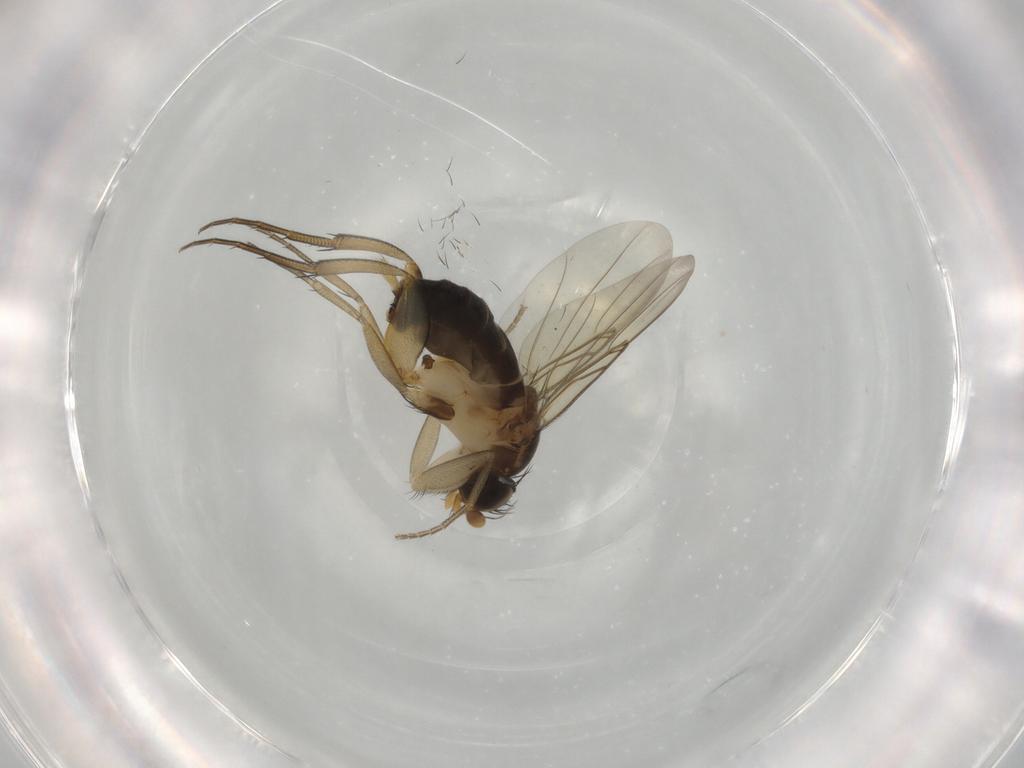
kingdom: Animalia
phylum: Arthropoda
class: Insecta
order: Diptera
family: Phoridae
